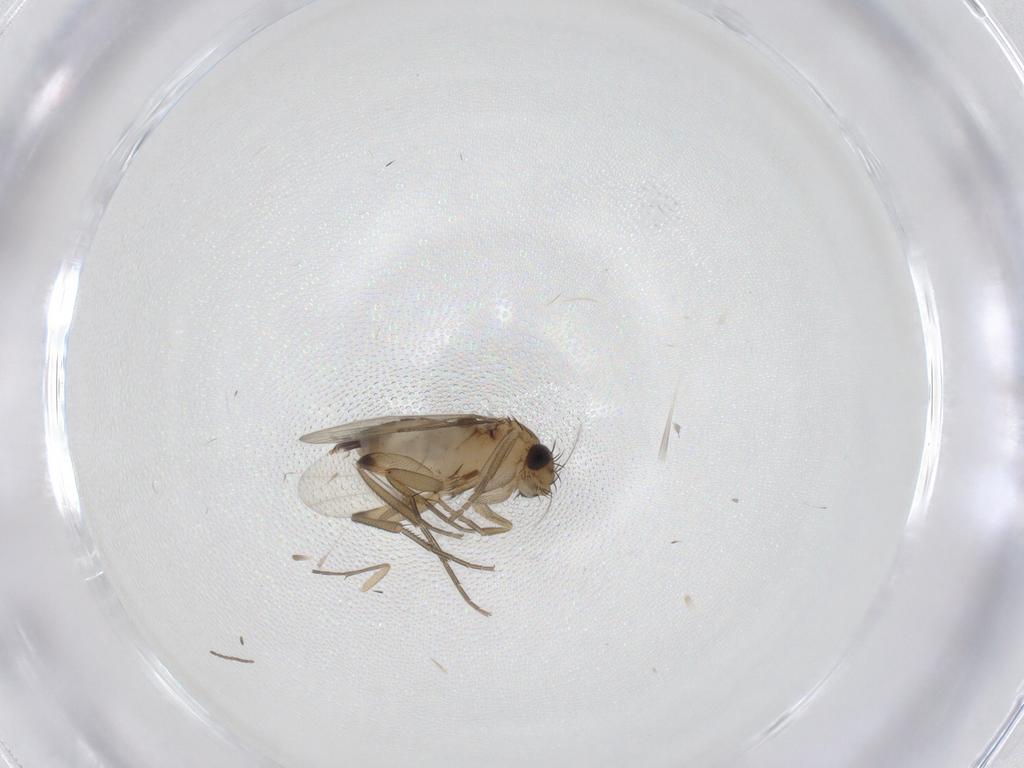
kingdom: Animalia
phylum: Arthropoda
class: Insecta
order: Diptera
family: Phoridae
